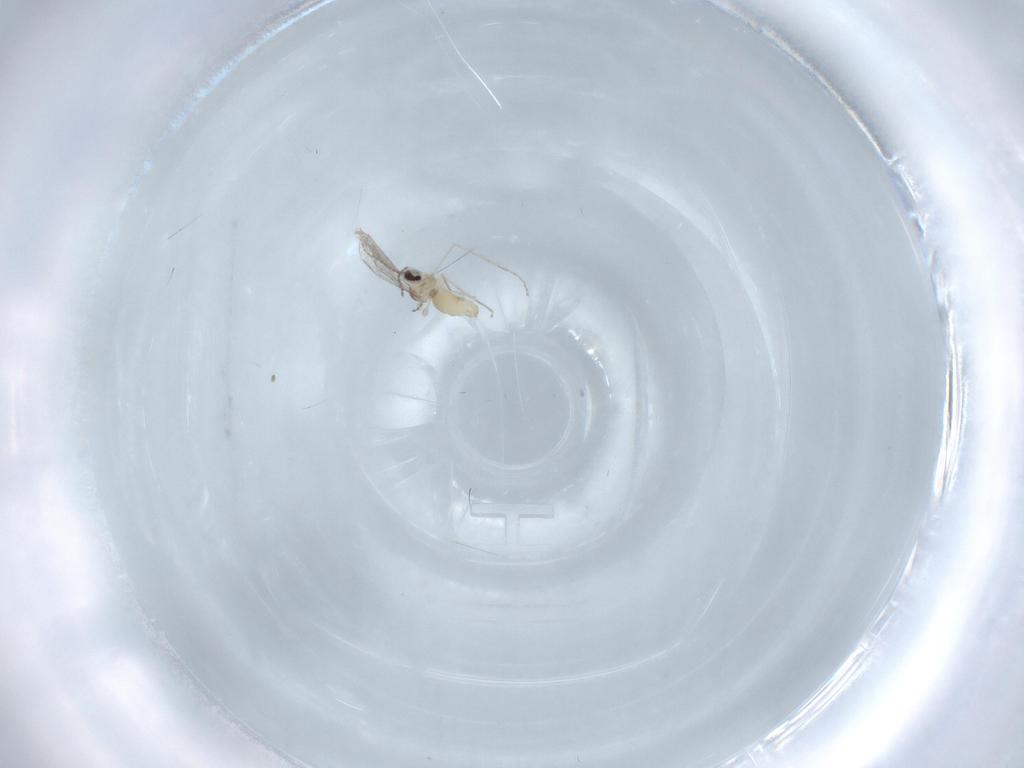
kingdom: Animalia
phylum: Arthropoda
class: Insecta
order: Diptera
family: Cecidomyiidae
